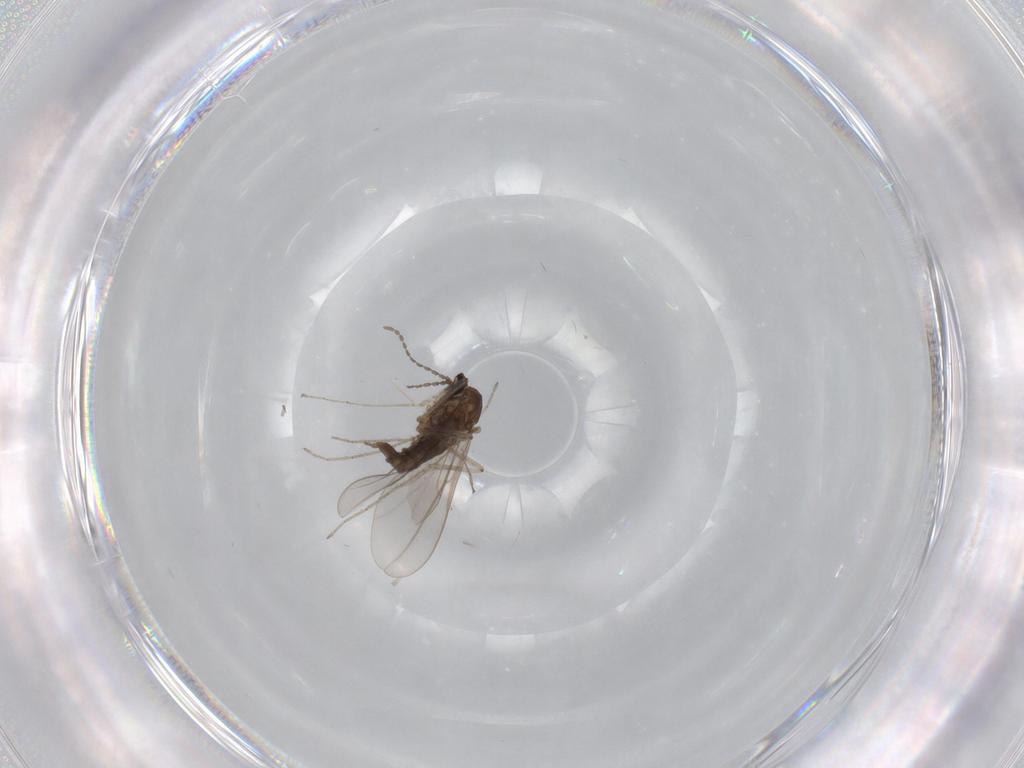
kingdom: Animalia
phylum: Arthropoda
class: Insecta
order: Diptera
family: Cecidomyiidae
